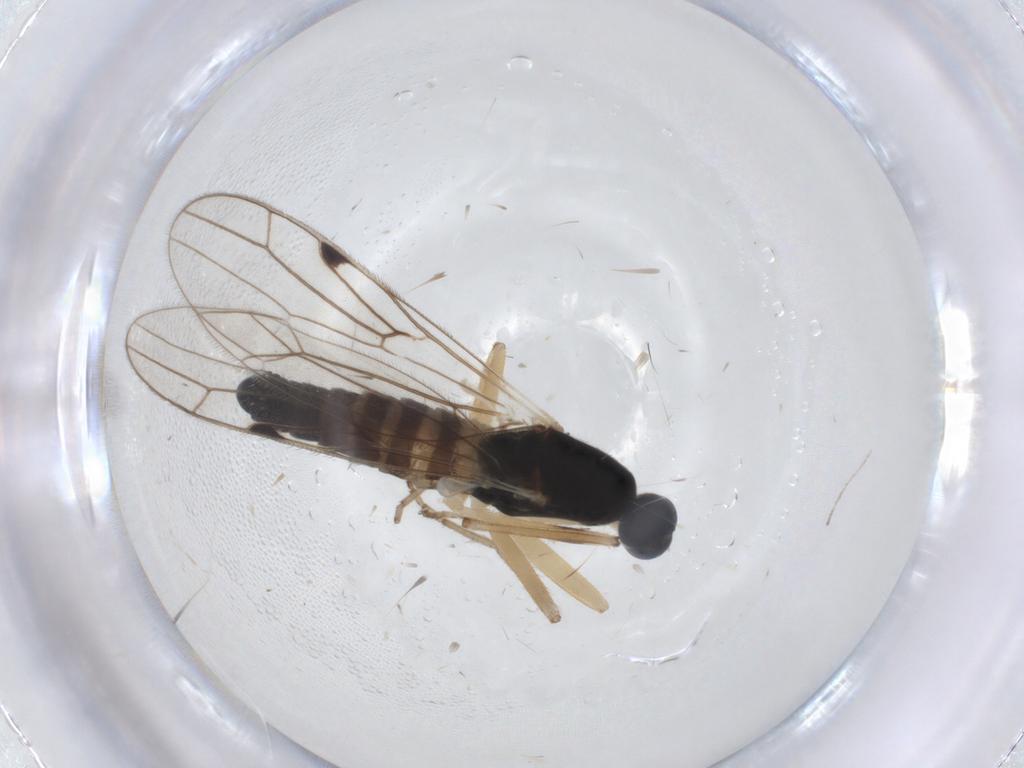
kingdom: Animalia
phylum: Arthropoda
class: Insecta
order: Diptera
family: Empididae
